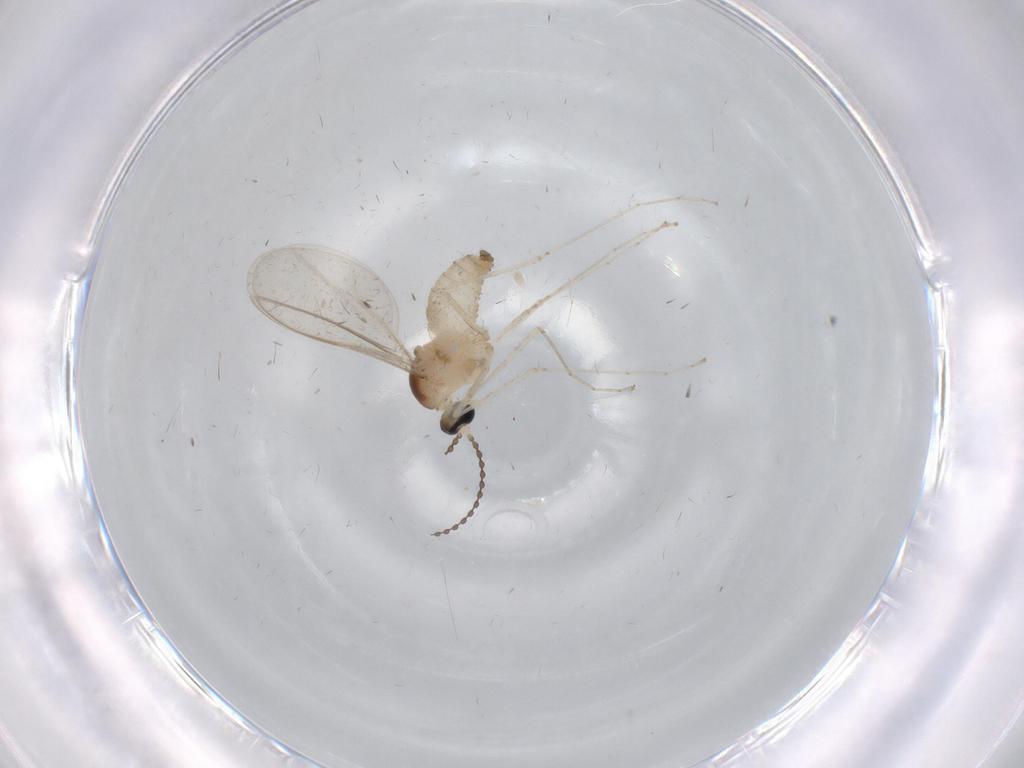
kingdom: Animalia
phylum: Arthropoda
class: Insecta
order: Diptera
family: Cecidomyiidae
